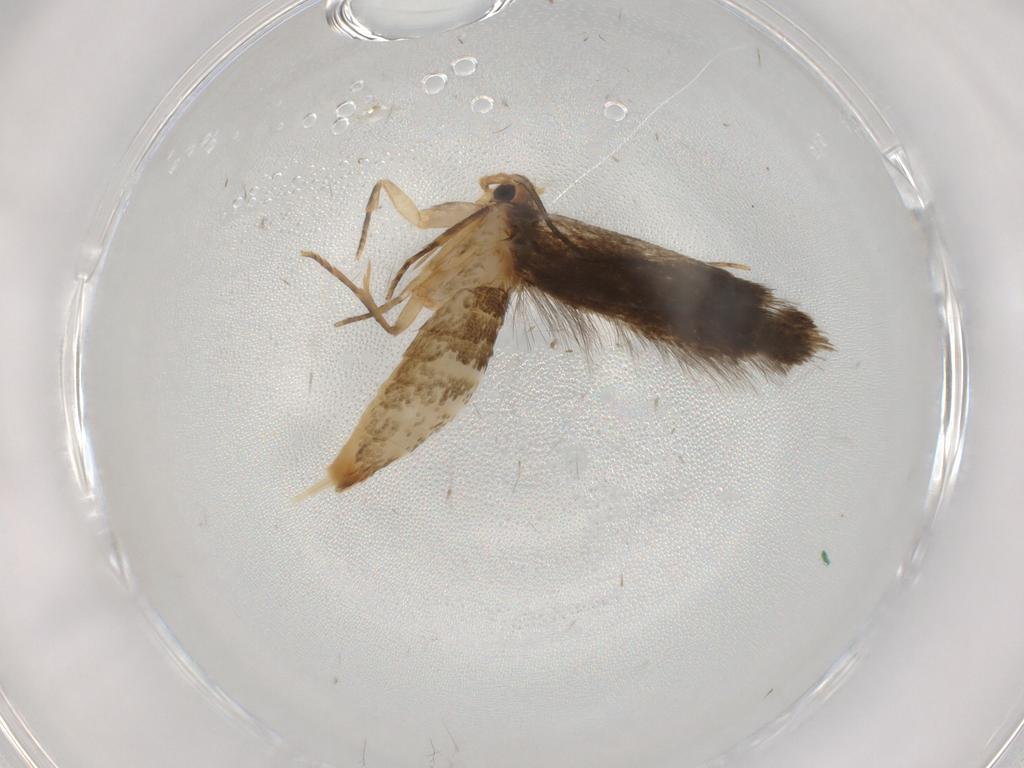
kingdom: Animalia
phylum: Arthropoda
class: Insecta
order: Lepidoptera
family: Tineidae
